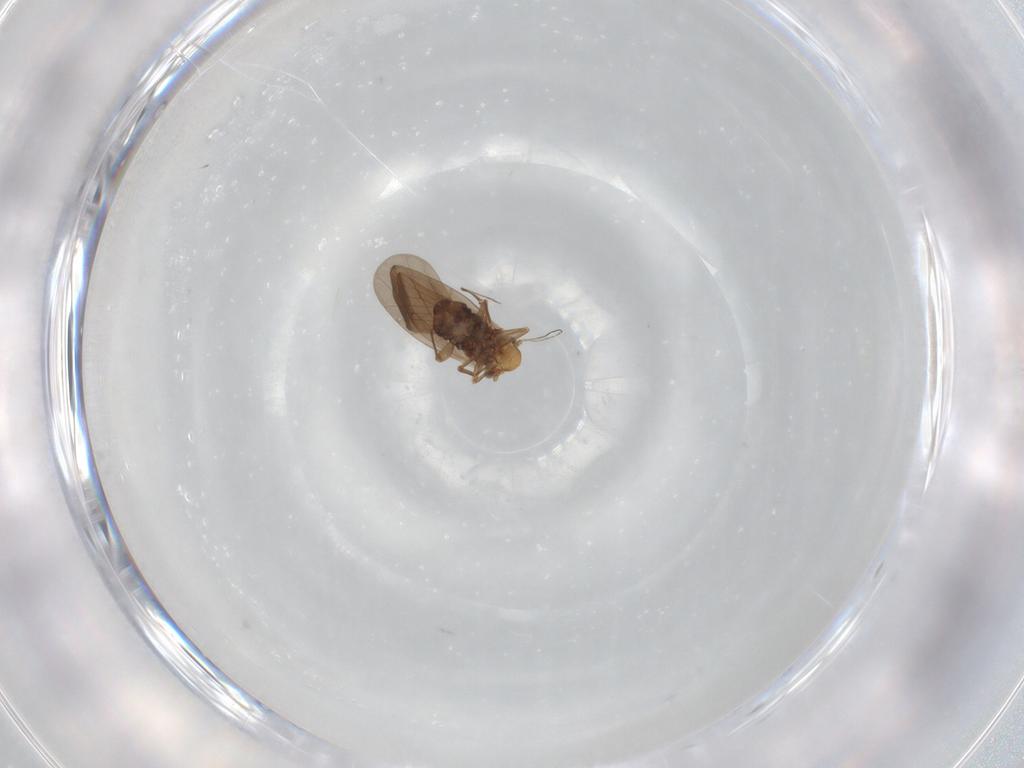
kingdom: Animalia
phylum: Arthropoda
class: Insecta
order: Psocodea
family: Lepidopsocidae
